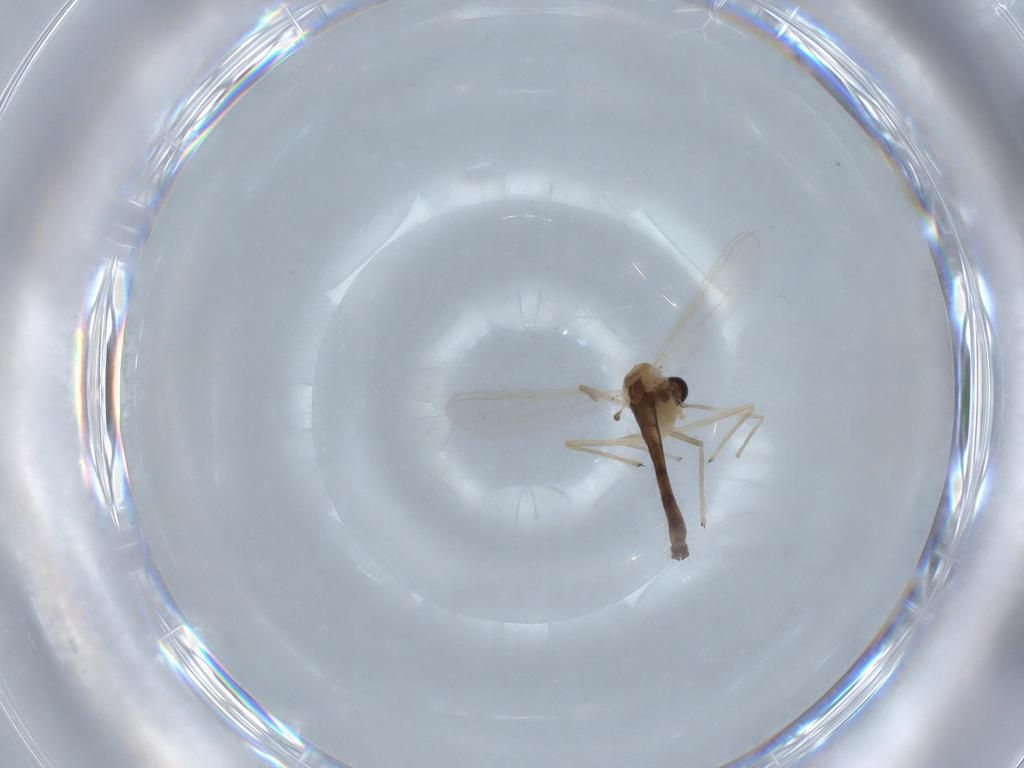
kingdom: Animalia
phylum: Arthropoda
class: Insecta
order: Diptera
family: Chironomidae
